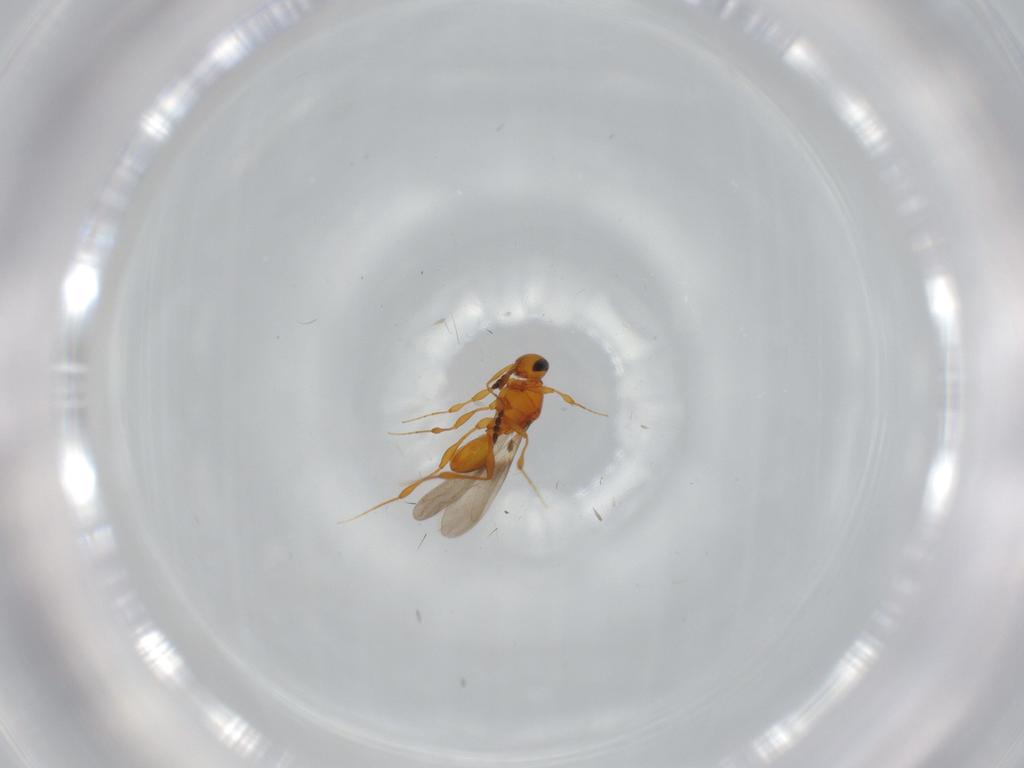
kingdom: Animalia
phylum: Arthropoda
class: Insecta
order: Hymenoptera
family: Platygastridae
